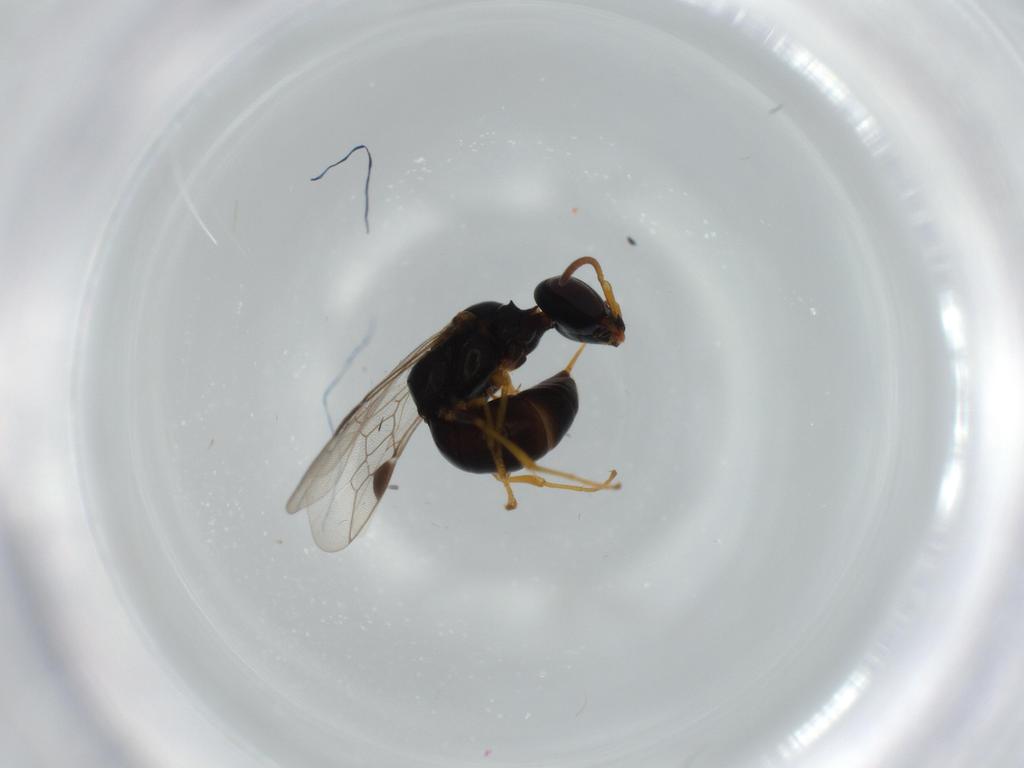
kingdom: Animalia
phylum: Arthropoda
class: Insecta
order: Hymenoptera
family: Pemphredonidae
